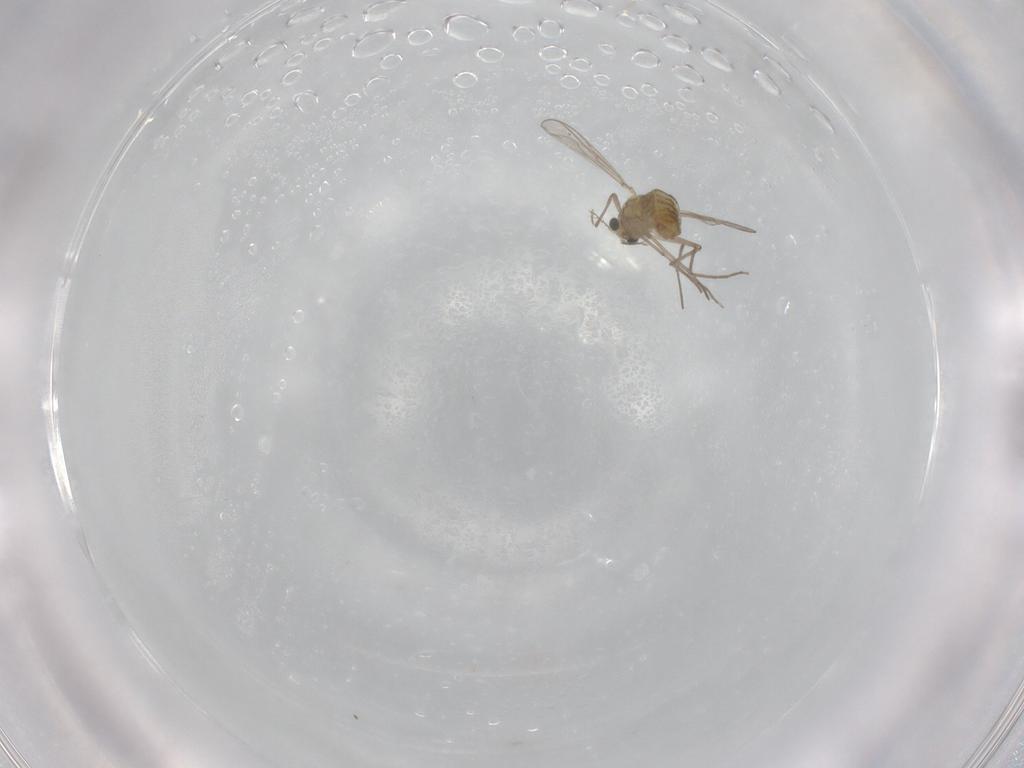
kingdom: Animalia
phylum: Arthropoda
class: Insecta
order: Diptera
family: Chironomidae
